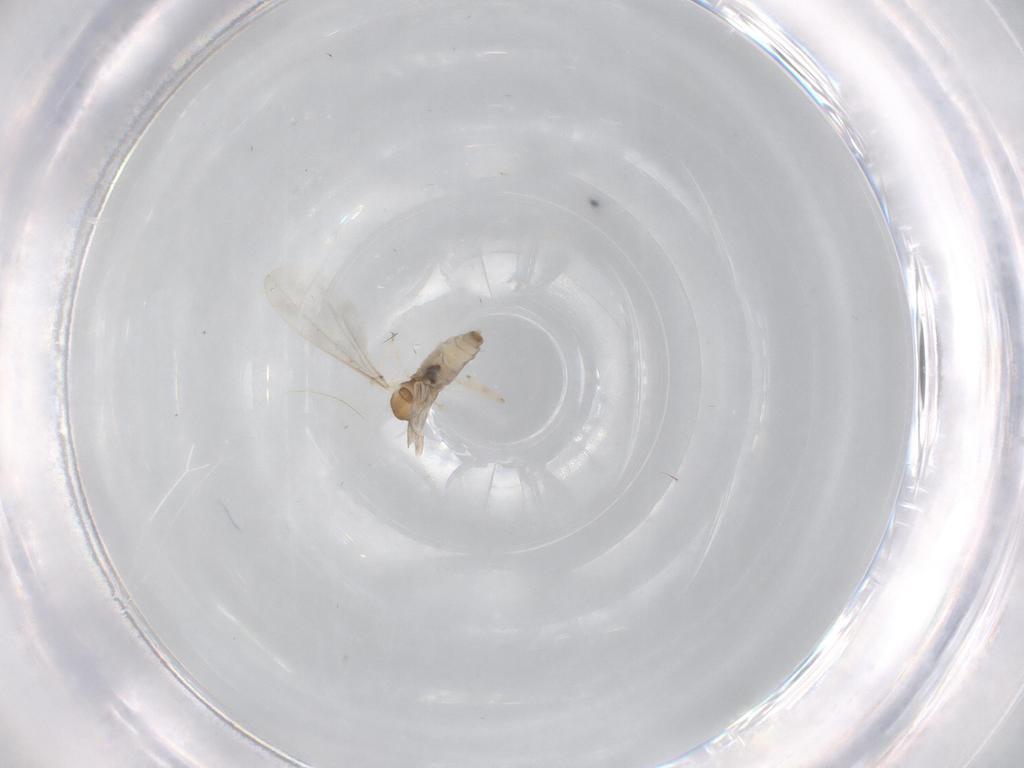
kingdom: Animalia
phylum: Arthropoda
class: Insecta
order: Diptera
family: Cecidomyiidae
